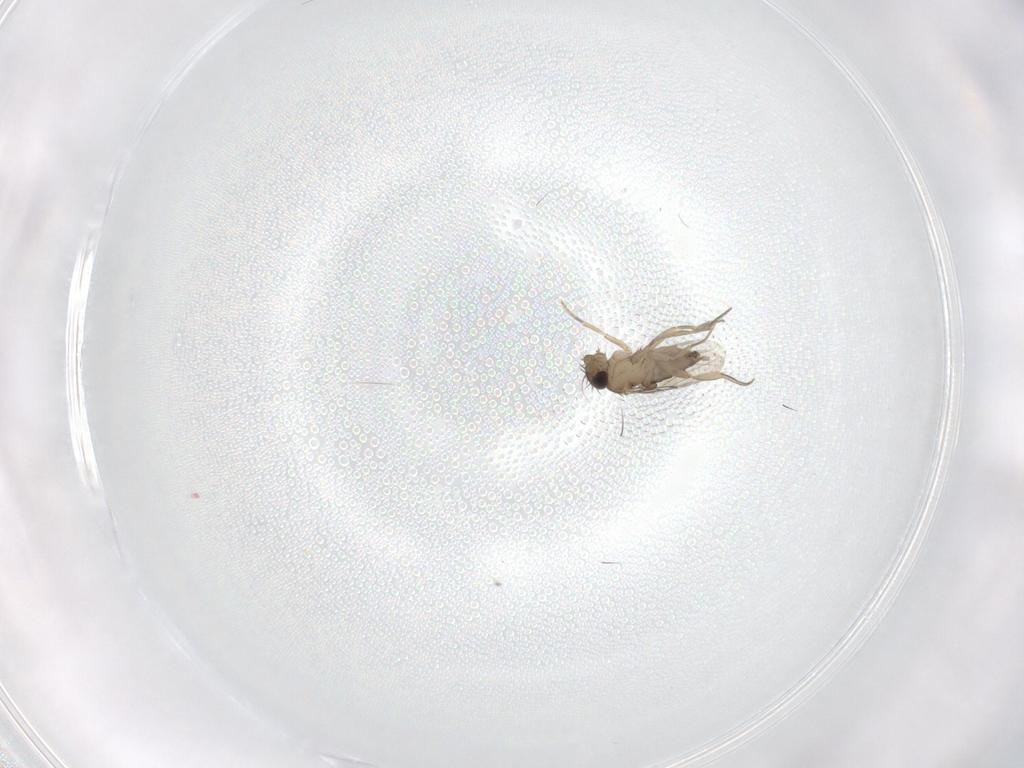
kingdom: Animalia
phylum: Arthropoda
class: Insecta
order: Diptera
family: Phoridae
